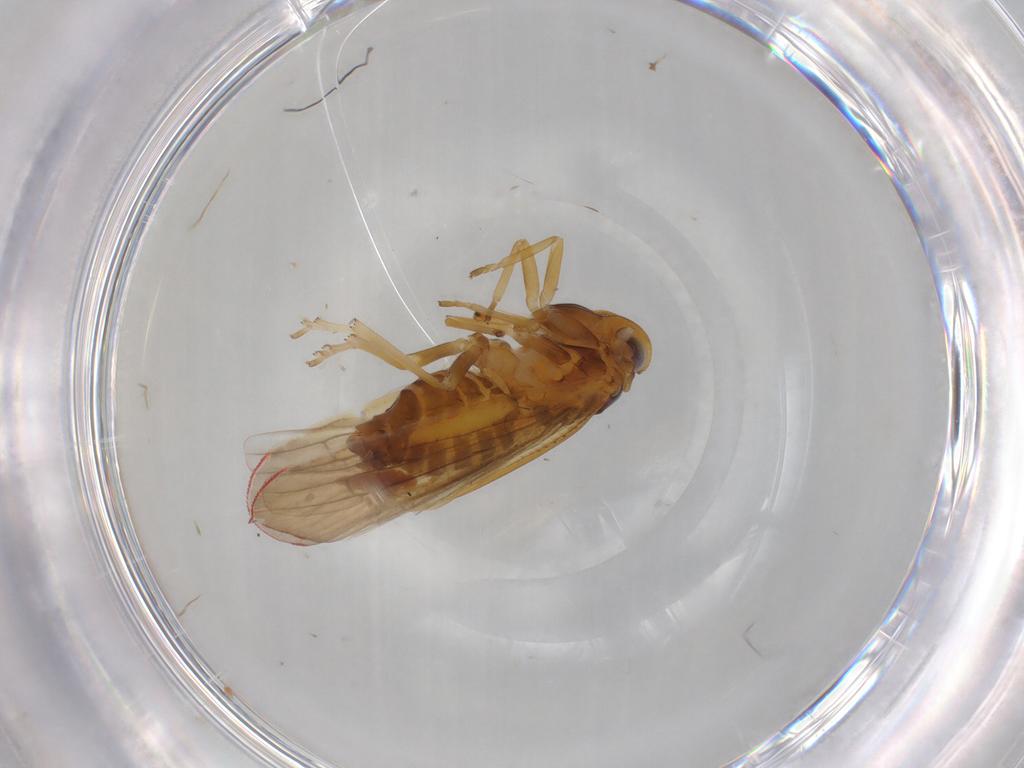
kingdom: Animalia
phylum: Arthropoda
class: Insecta
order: Hemiptera
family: Derbidae
